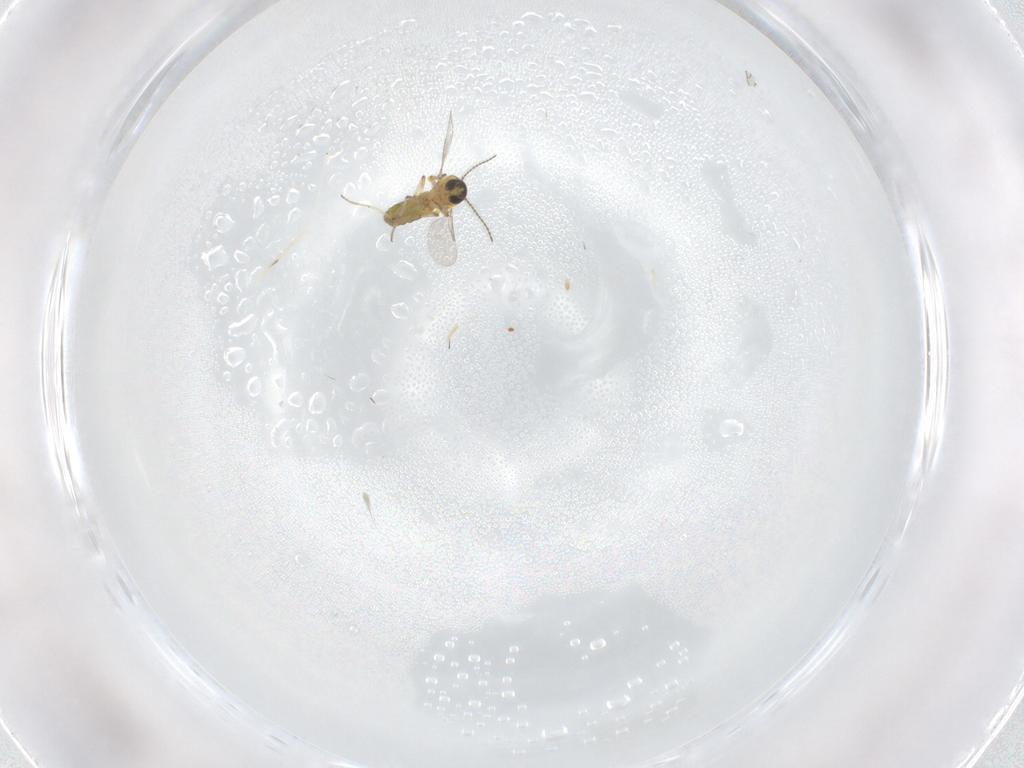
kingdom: Animalia
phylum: Arthropoda
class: Insecta
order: Diptera
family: Ceratopogonidae
